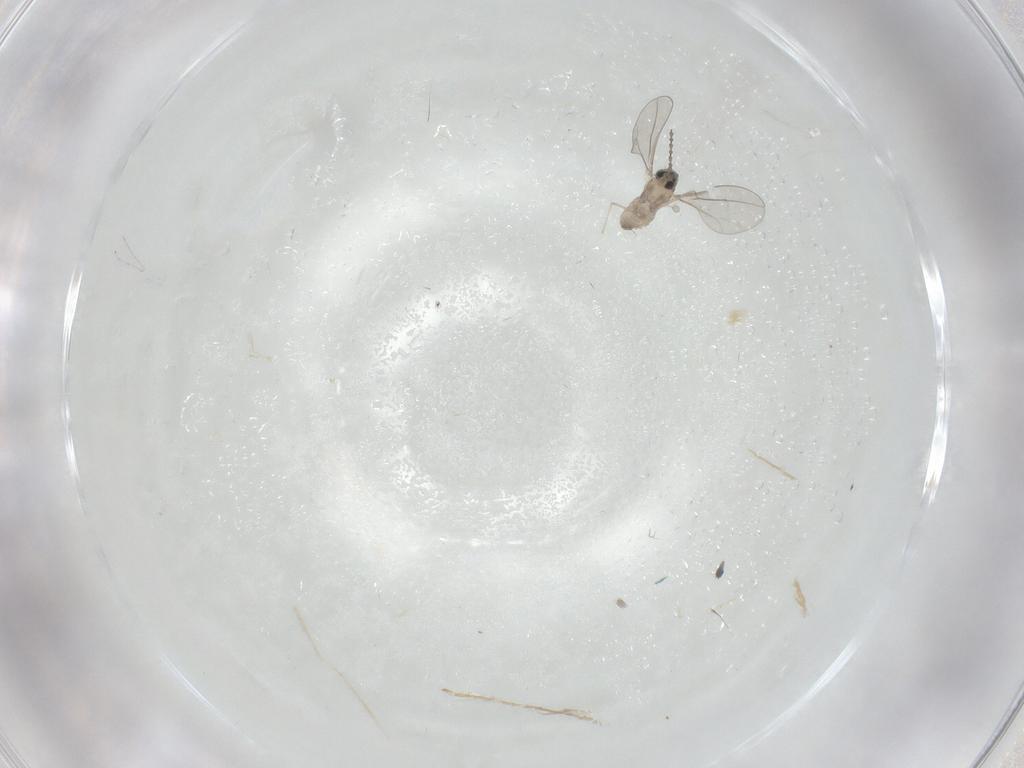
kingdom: Animalia
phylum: Arthropoda
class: Insecta
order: Diptera
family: Cecidomyiidae
